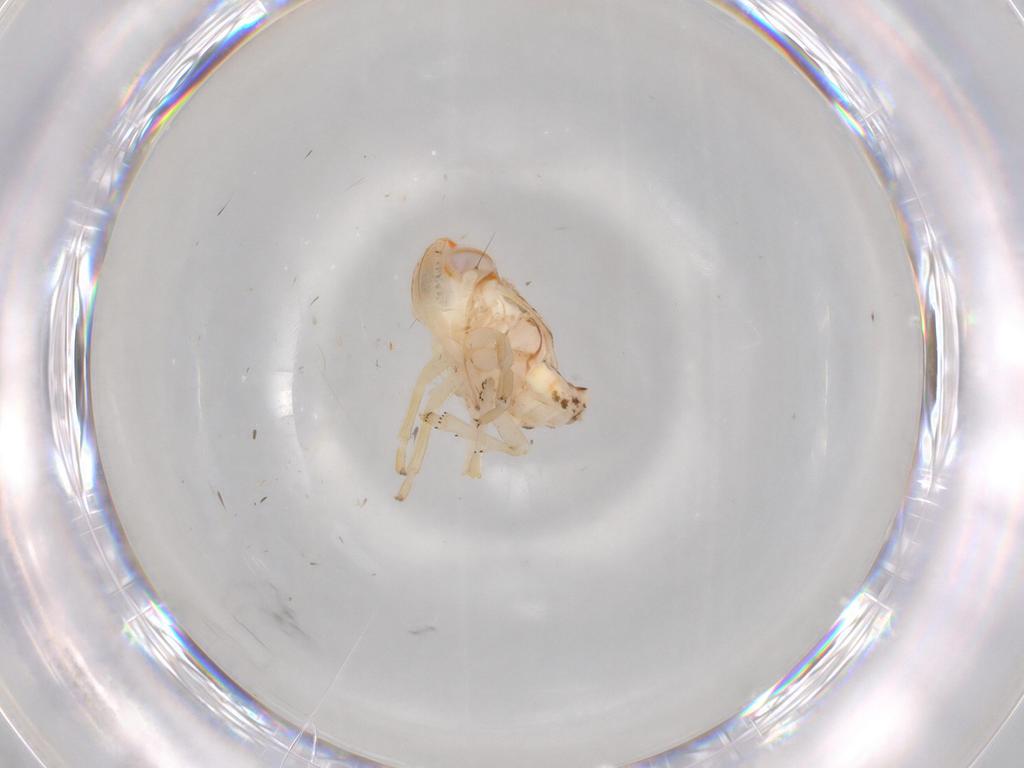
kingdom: Animalia
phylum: Arthropoda
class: Insecta
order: Hemiptera
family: Nogodinidae
